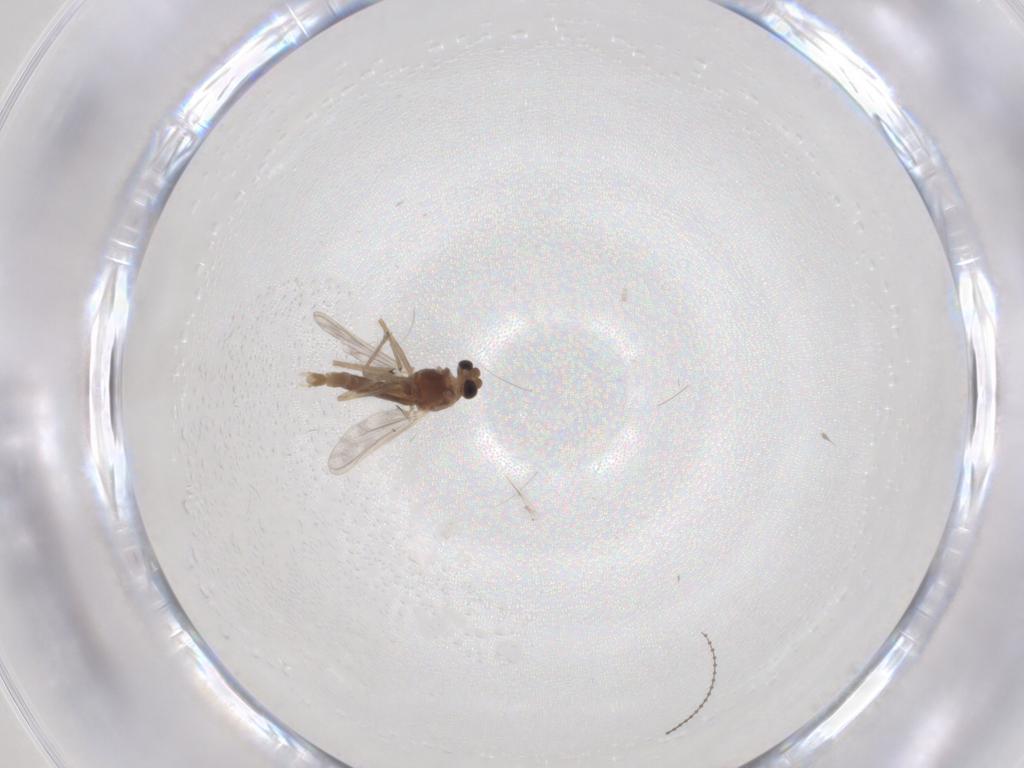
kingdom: Animalia
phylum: Arthropoda
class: Insecta
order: Diptera
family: Chironomidae
